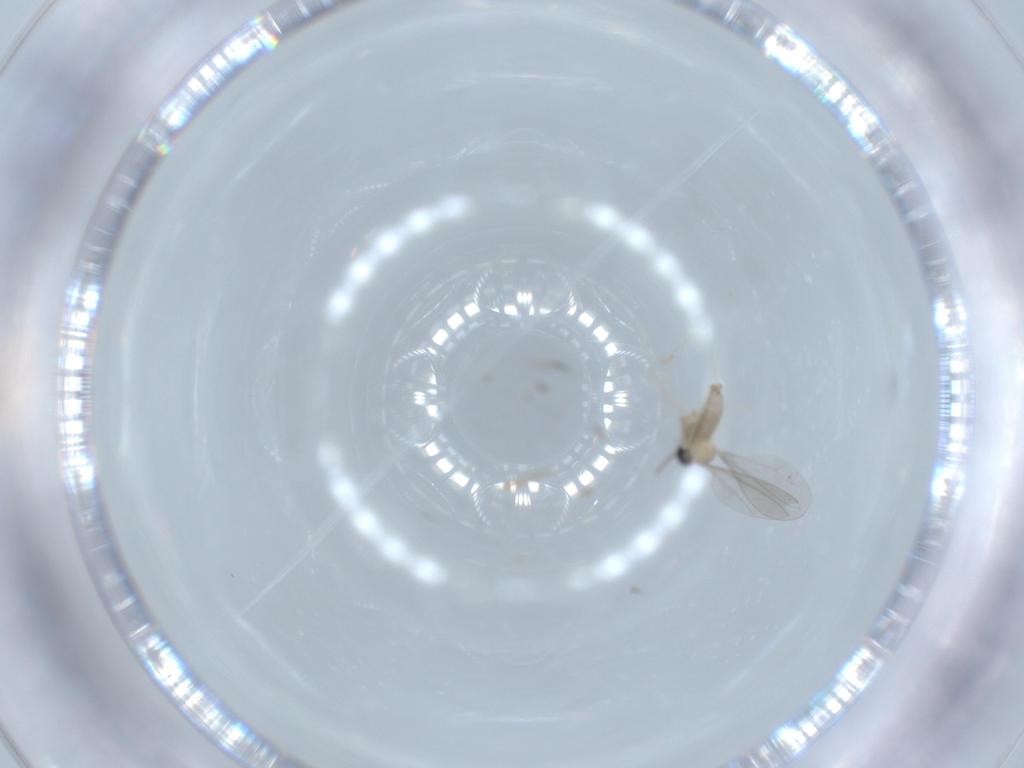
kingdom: Animalia
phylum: Arthropoda
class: Insecta
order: Diptera
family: Cecidomyiidae
